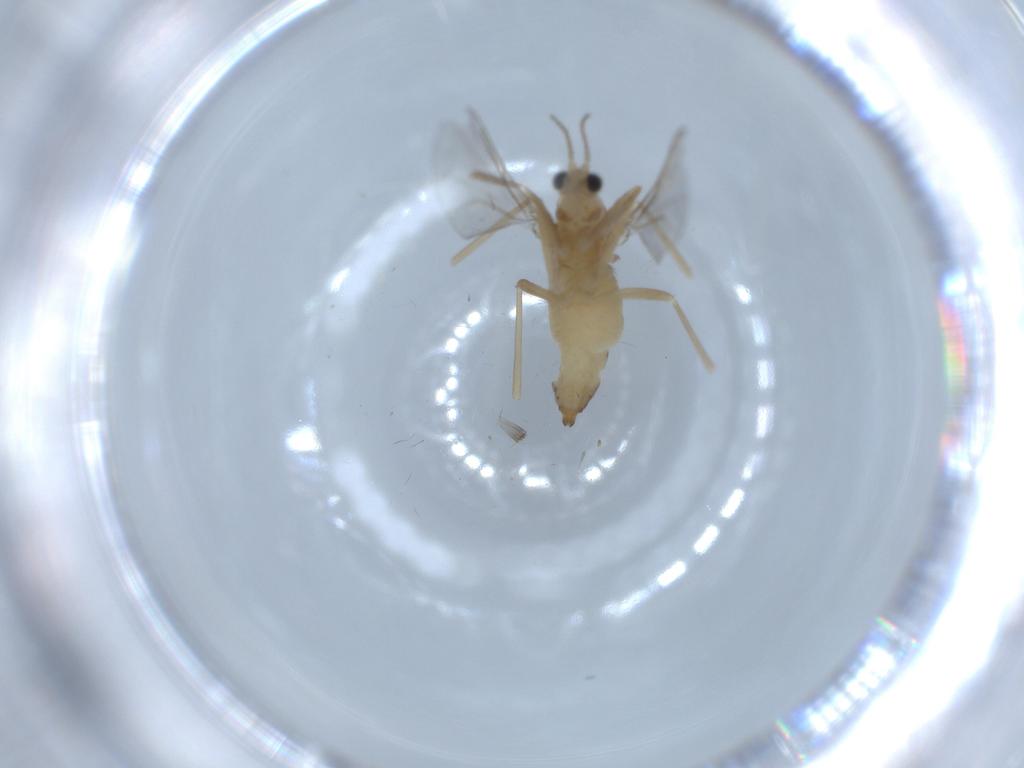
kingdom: Animalia
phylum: Arthropoda
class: Insecta
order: Diptera
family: Cecidomyiidae
